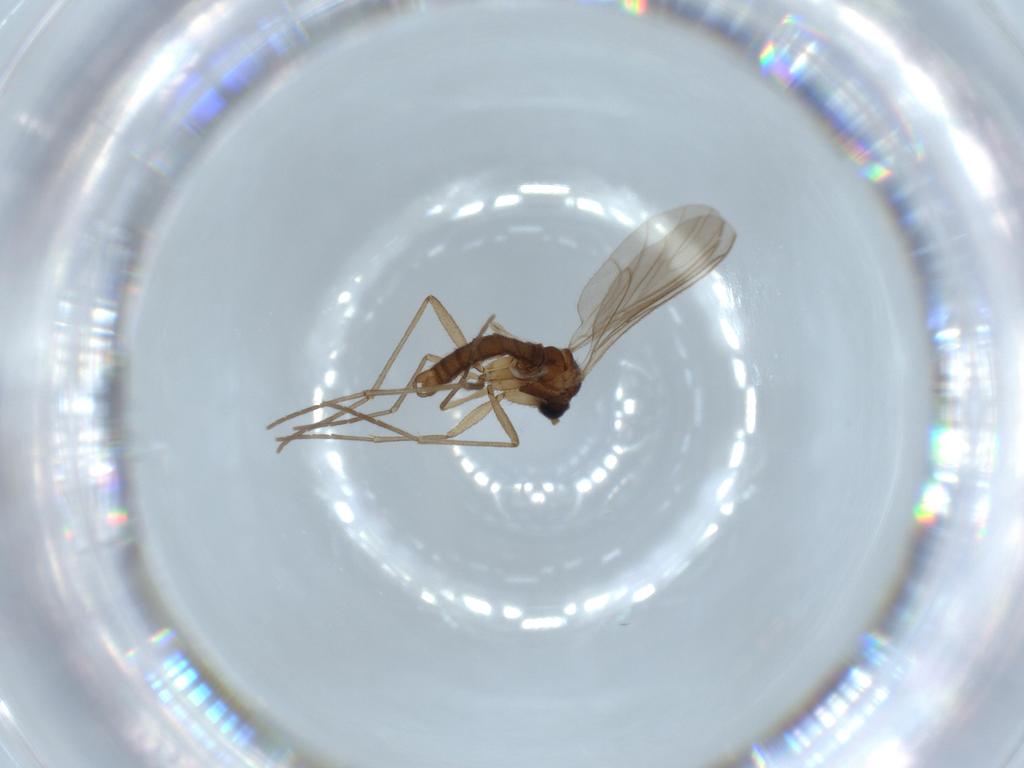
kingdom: Animalia
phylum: Arthropoda
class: Insecta
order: Diptera
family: Sciaridae
